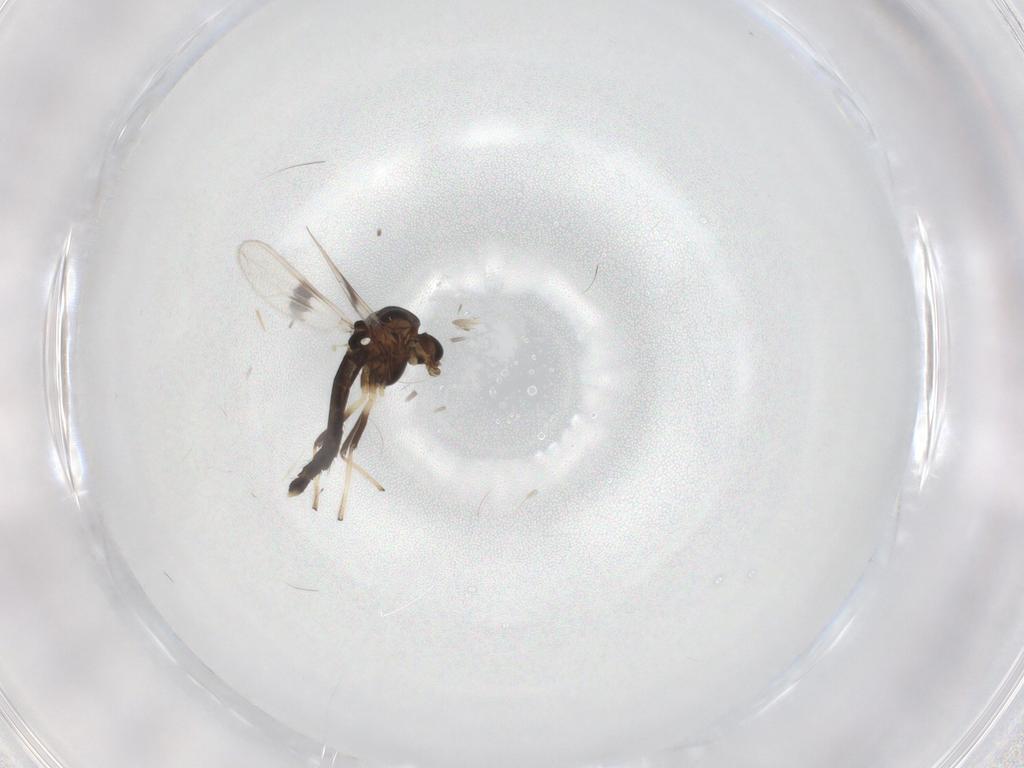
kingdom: Animalia
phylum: Arthropoda
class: Insecta
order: Diptera
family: Chironomidae
